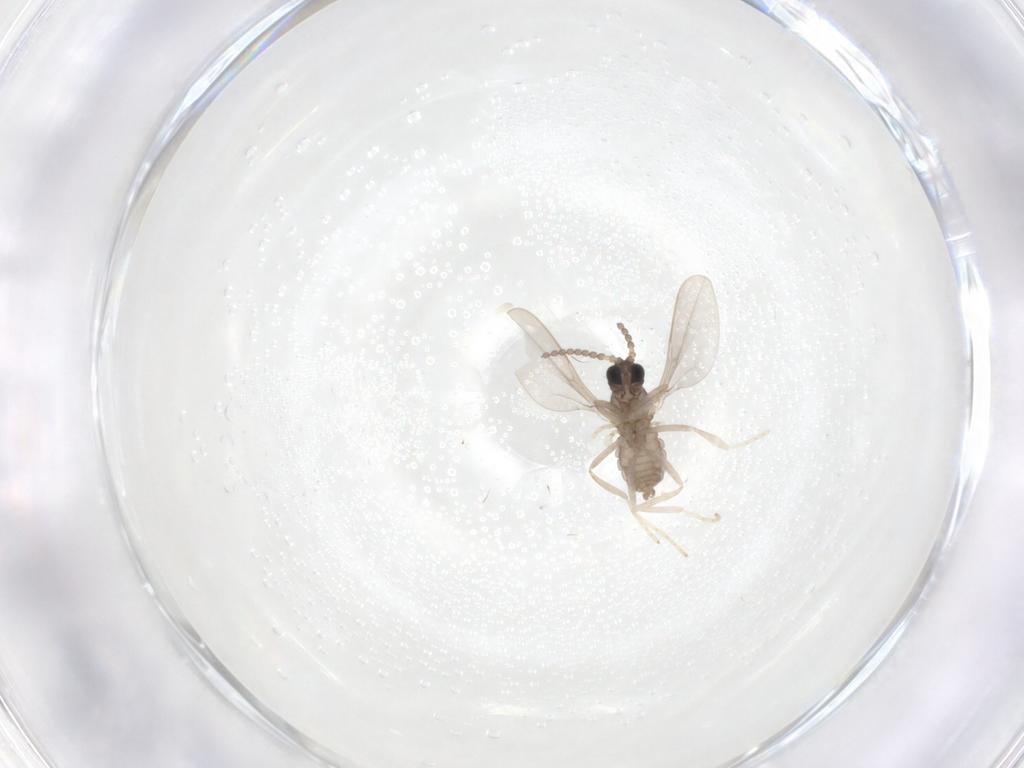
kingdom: Animalia
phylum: Arthropoda
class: Insecta
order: Diptera
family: Cecidomyiidae
